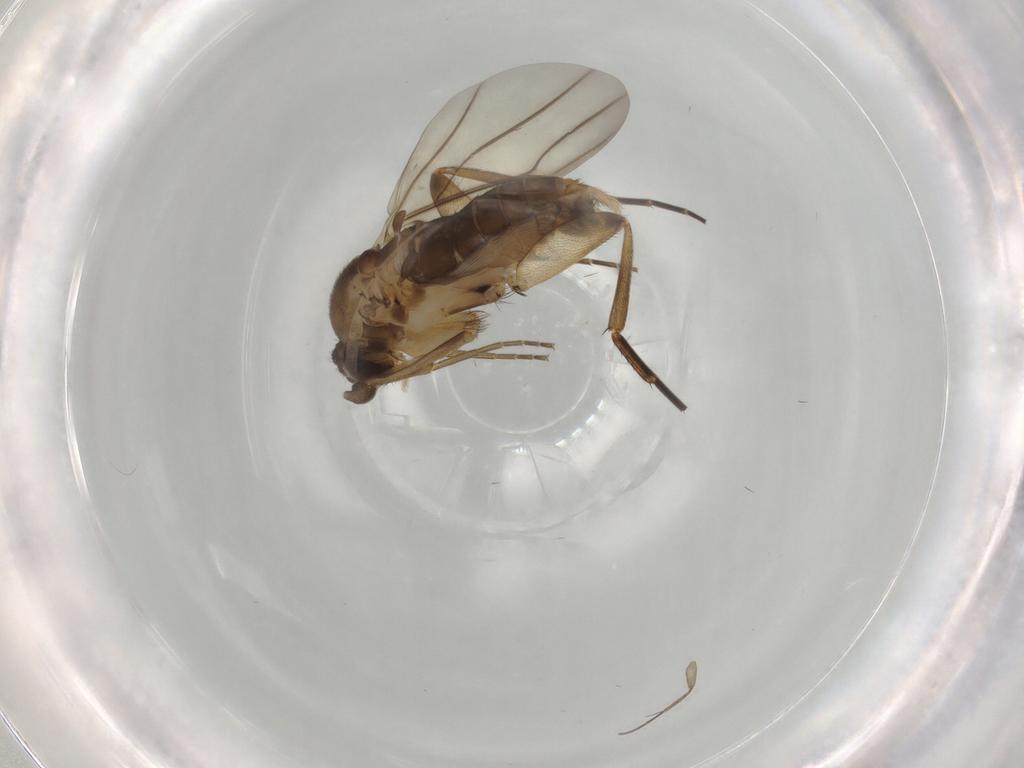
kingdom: Animalia
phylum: Arthropoda
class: Insecta
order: Diptera
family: Phoridae
